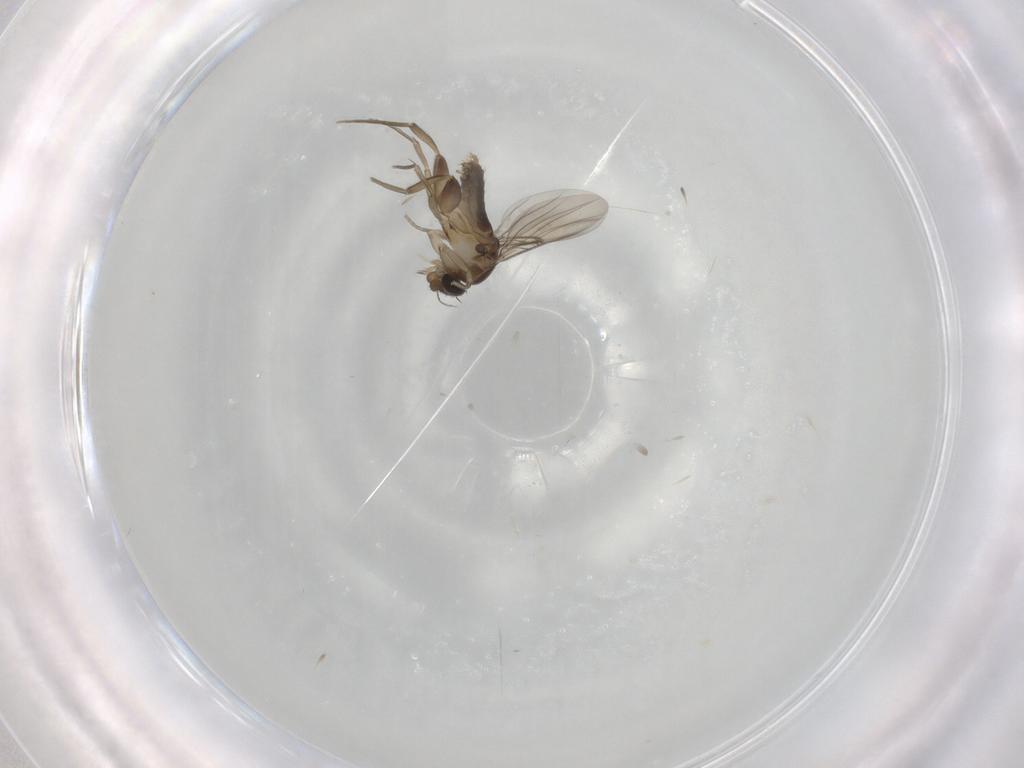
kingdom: Animalia
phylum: Arthropoda
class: Insecta
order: Diptera
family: Phoridae
